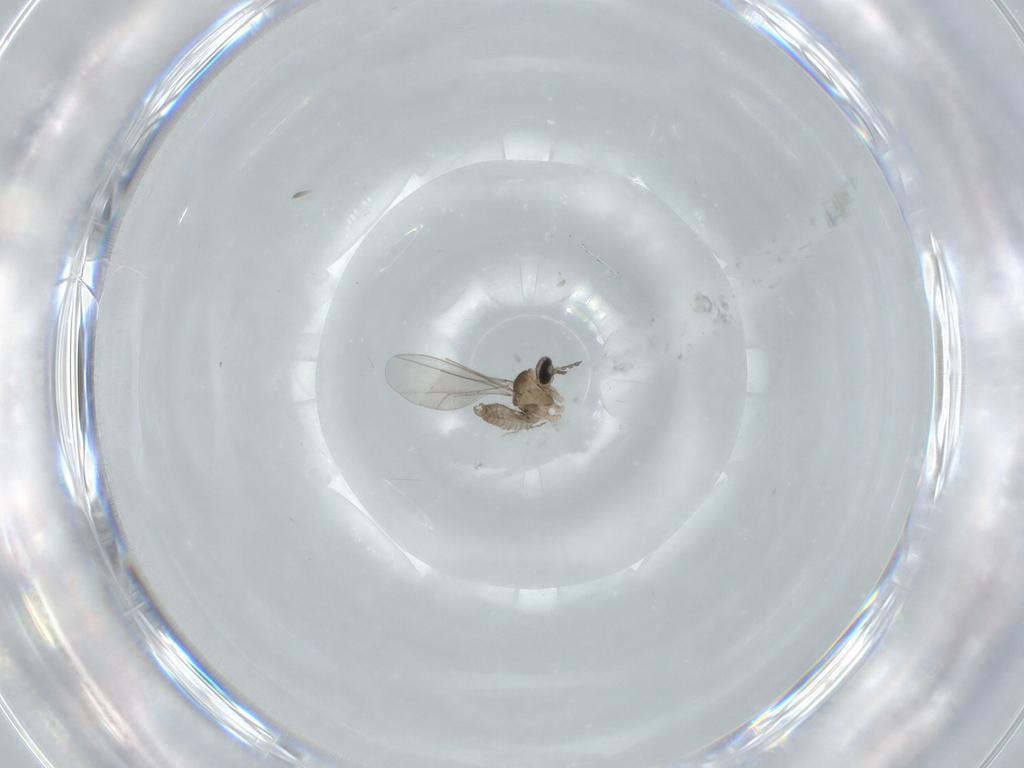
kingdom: Animalia
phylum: Arthropoda
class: Insecta
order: Diptera
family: Cecidomyiidae
